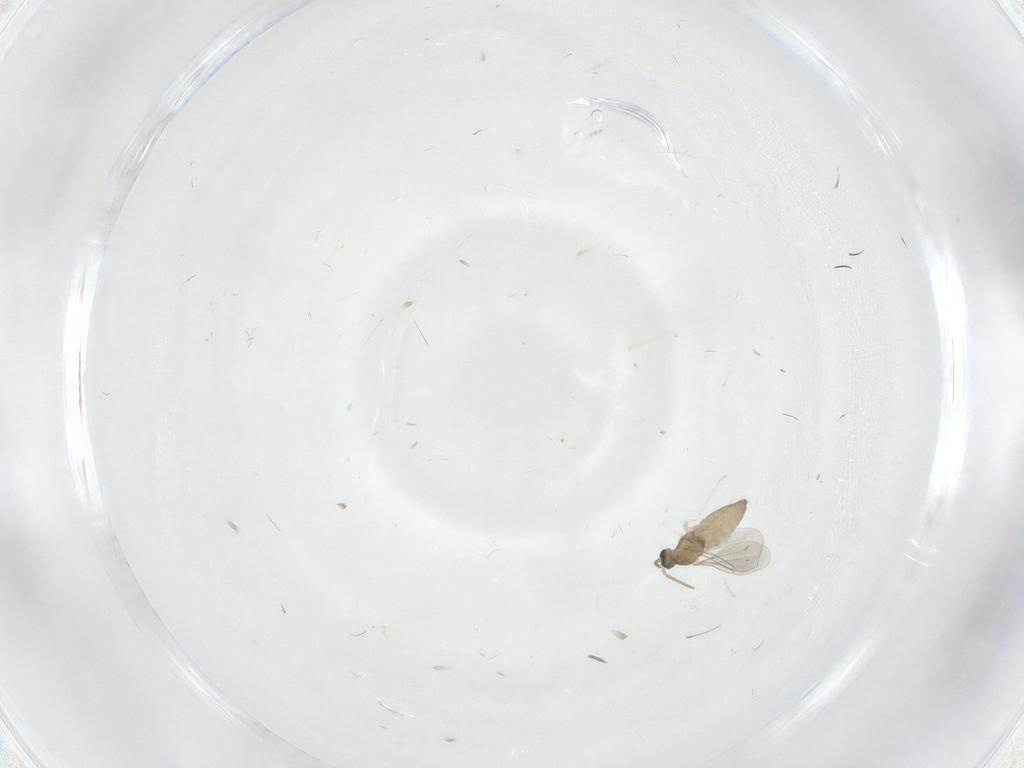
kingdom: Animalia
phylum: Arthropoda
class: Insecta
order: Diptera
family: Cecidomyiidae
